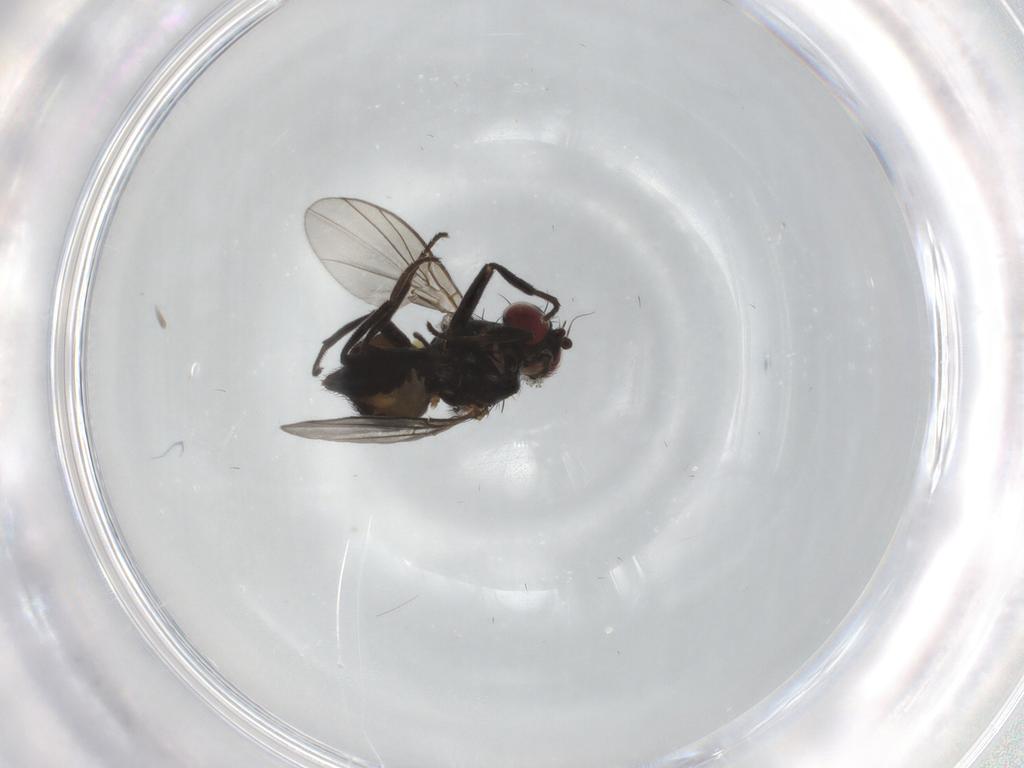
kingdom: Animalia
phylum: Arthropoda
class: Insecta
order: Diptera
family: Agromyzidae
